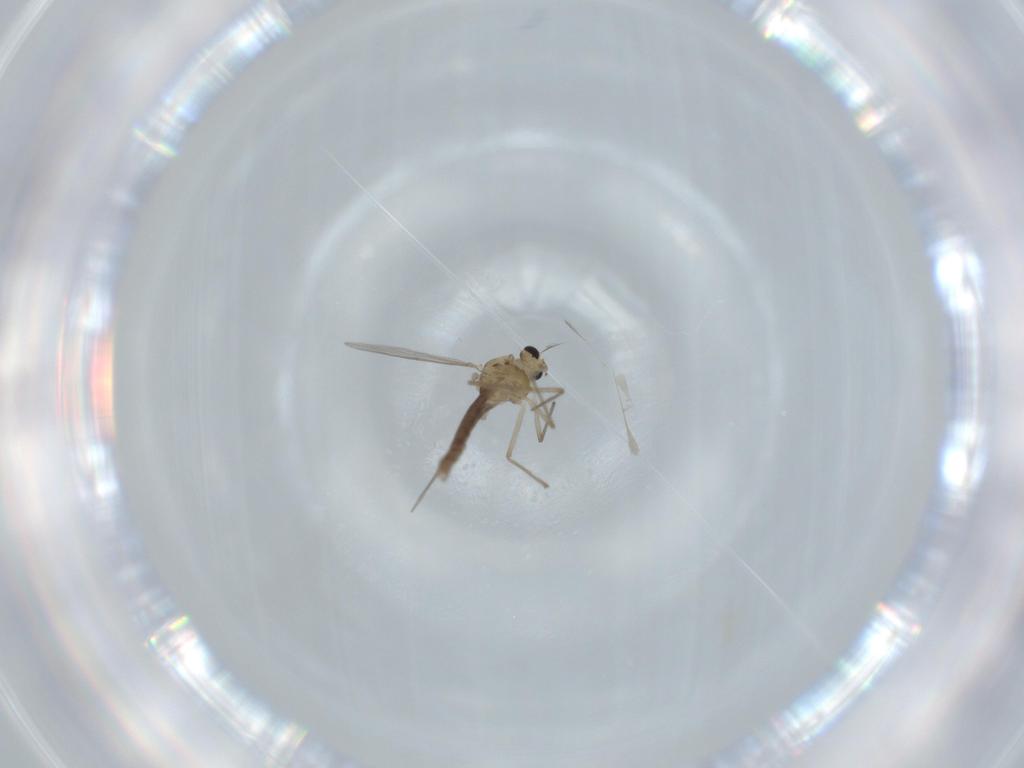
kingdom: Animalia
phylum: Arthropoda
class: Insecta
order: Diptera
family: Chironomidae
